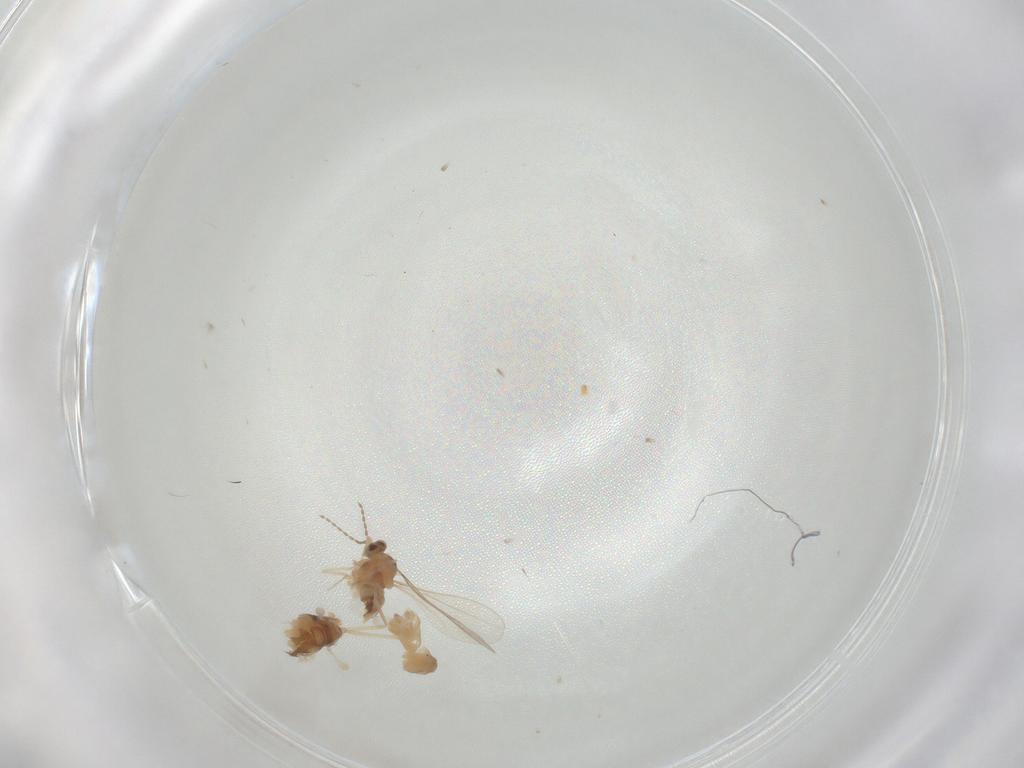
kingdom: Animalia
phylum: Arthropoda
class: Insecta
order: Diptera
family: Cecidomyiidae
